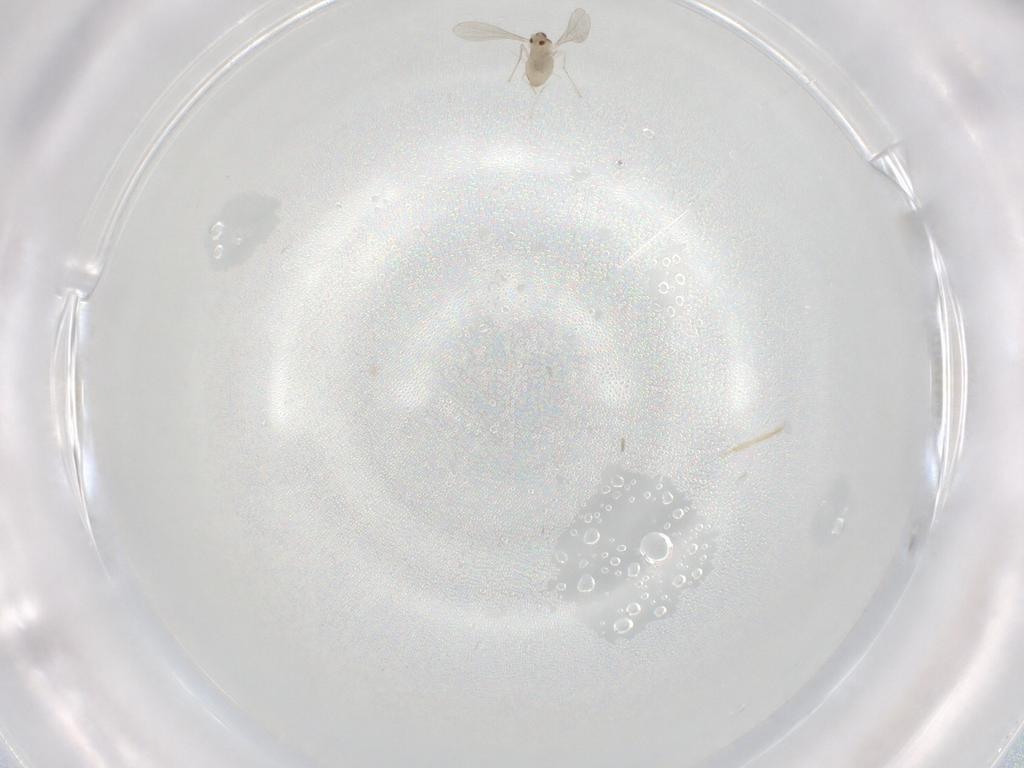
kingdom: Animalia
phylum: Arthropoda
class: Insecta
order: Diptera
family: Cecidomyiidae
